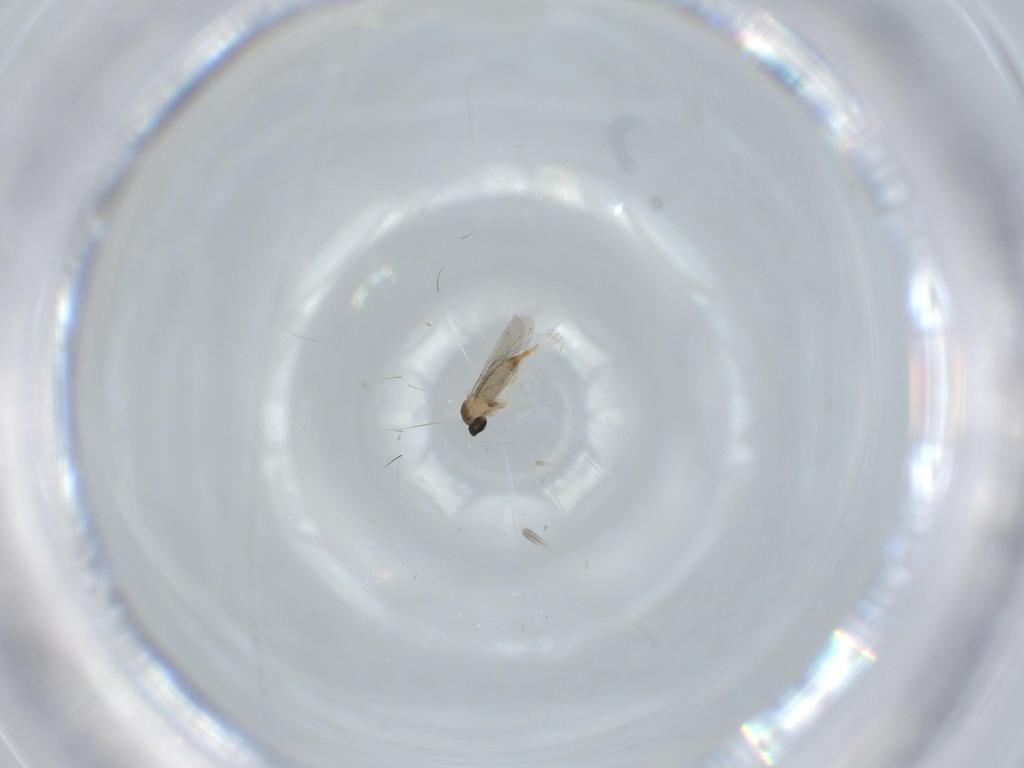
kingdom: Animalia
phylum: Arthropoda
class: Insecta
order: Diptera
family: Cecidomyiidae
